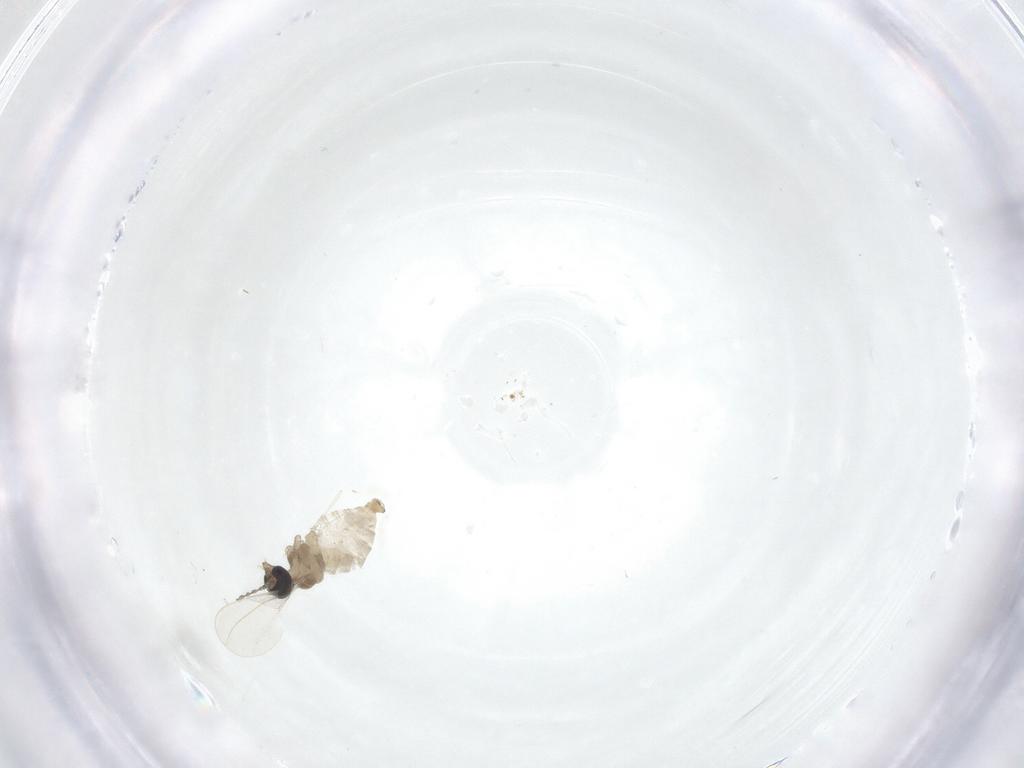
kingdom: Animalia
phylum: Arthropoda
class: Insecta
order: Diptera
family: Cecidomyiidae
